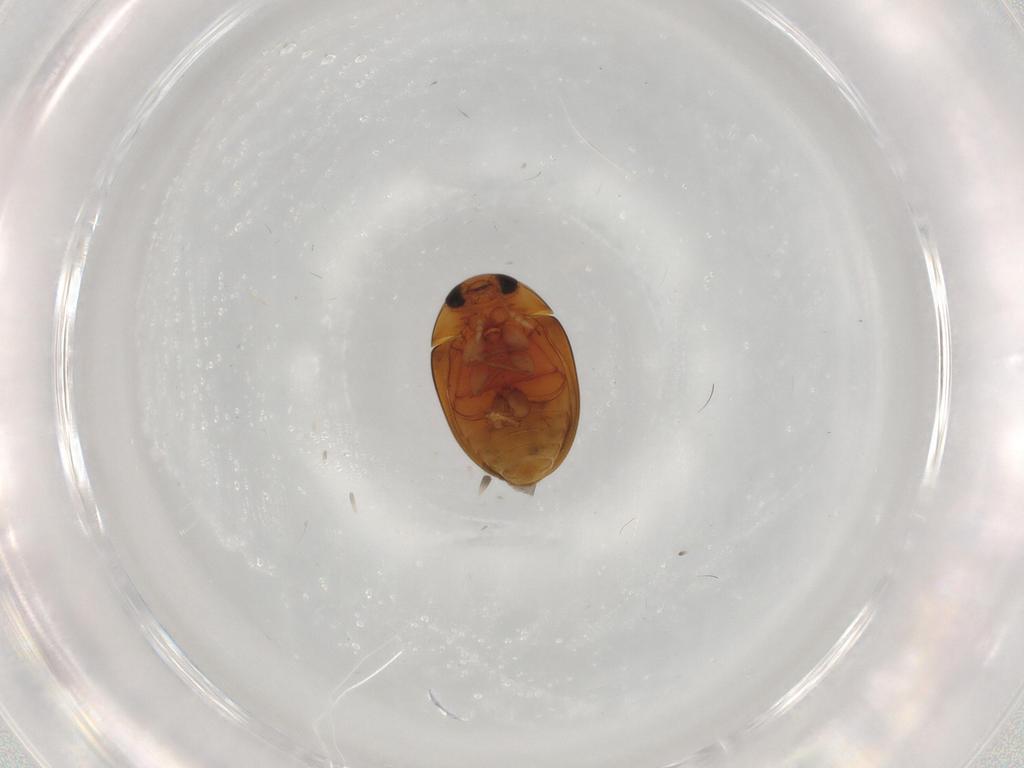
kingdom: Animalia
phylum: Arthropoda
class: Insecta
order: Coleoptera
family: Phalacridae
